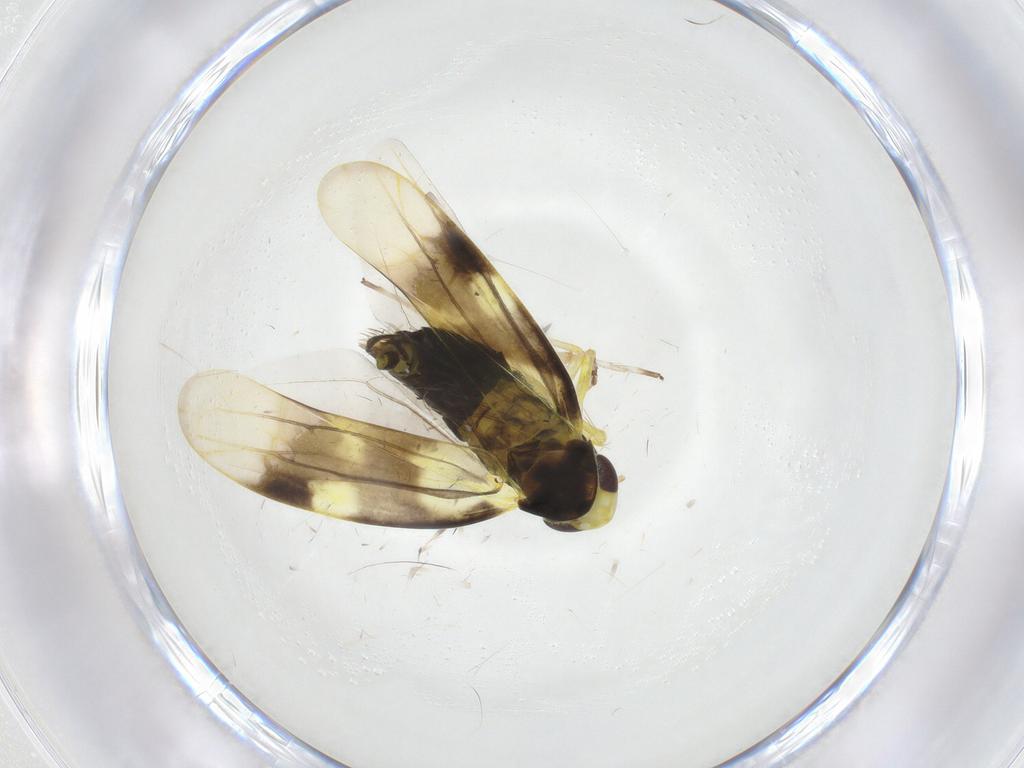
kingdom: Animalia
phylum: Arthropoda
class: Insecta
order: Hemiptera
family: Cicadellidae
